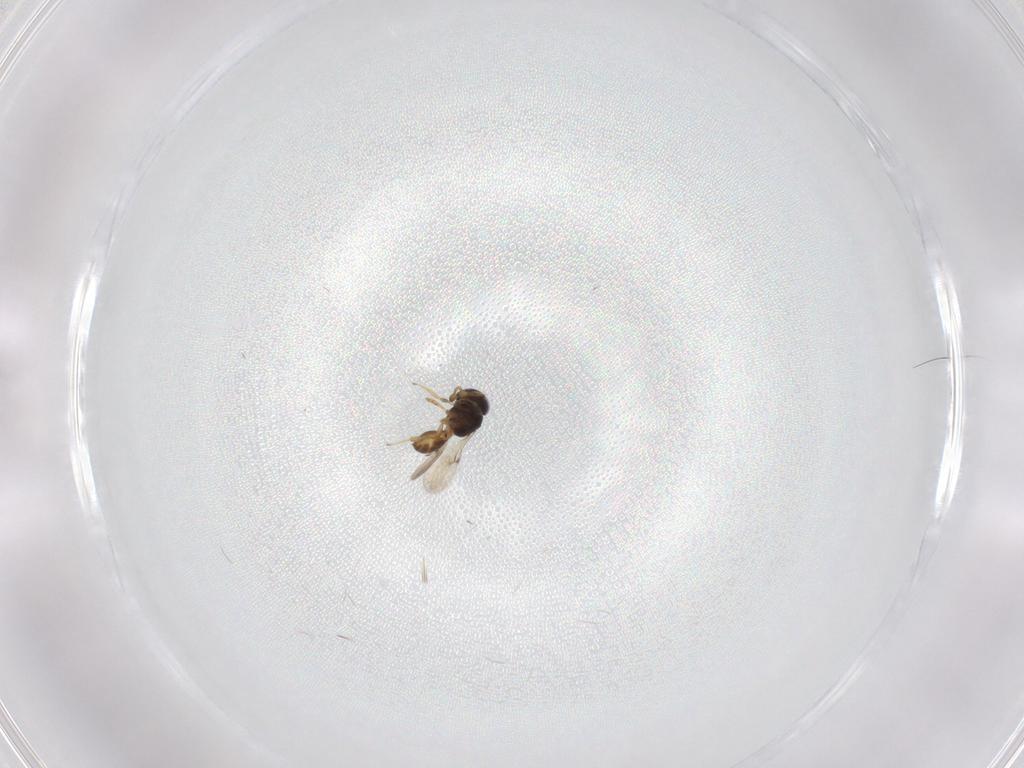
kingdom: Animalia
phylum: Arthropoda
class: Insecta
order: Hymenoptera
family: Scelionidae
